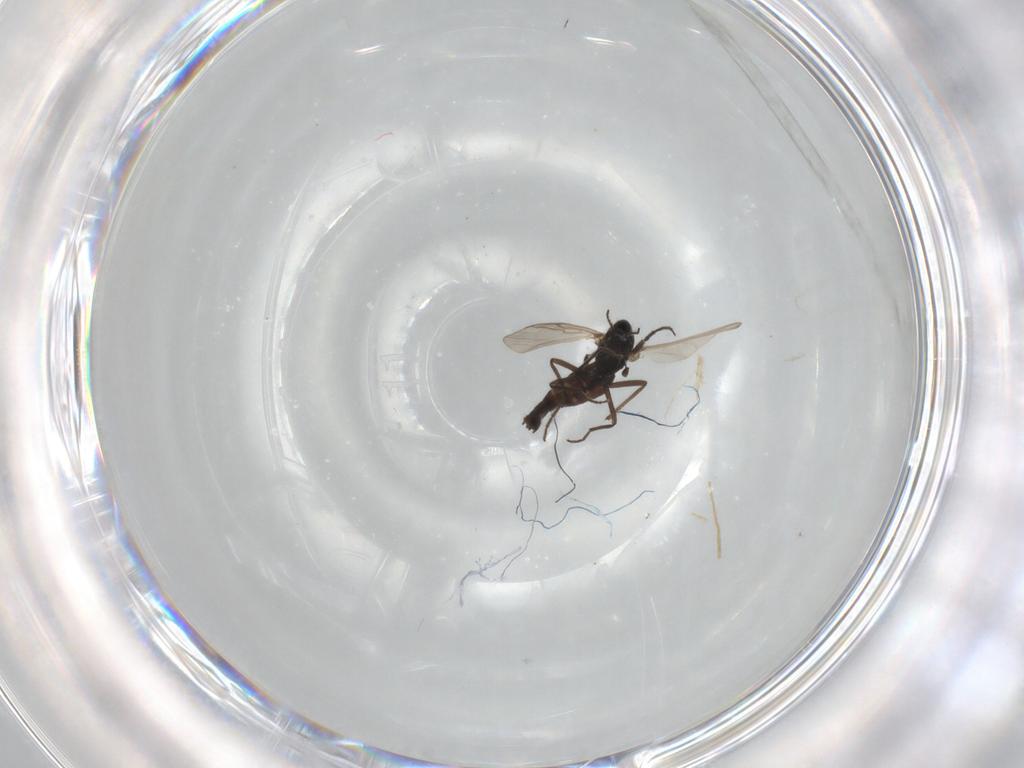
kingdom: Animalia
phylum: Arthropoda
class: Insecta
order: Diptera
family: Chironomidae
